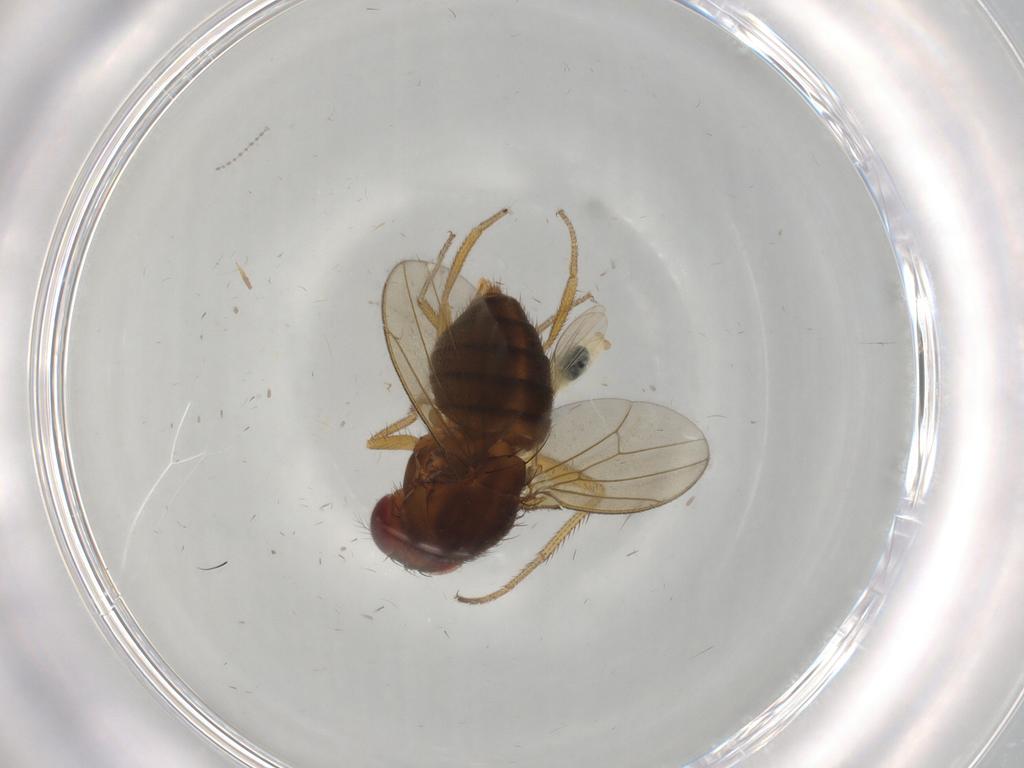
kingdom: Animalia
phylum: Arthropoda
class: Insecta
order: Diptera
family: Drosophilidae
